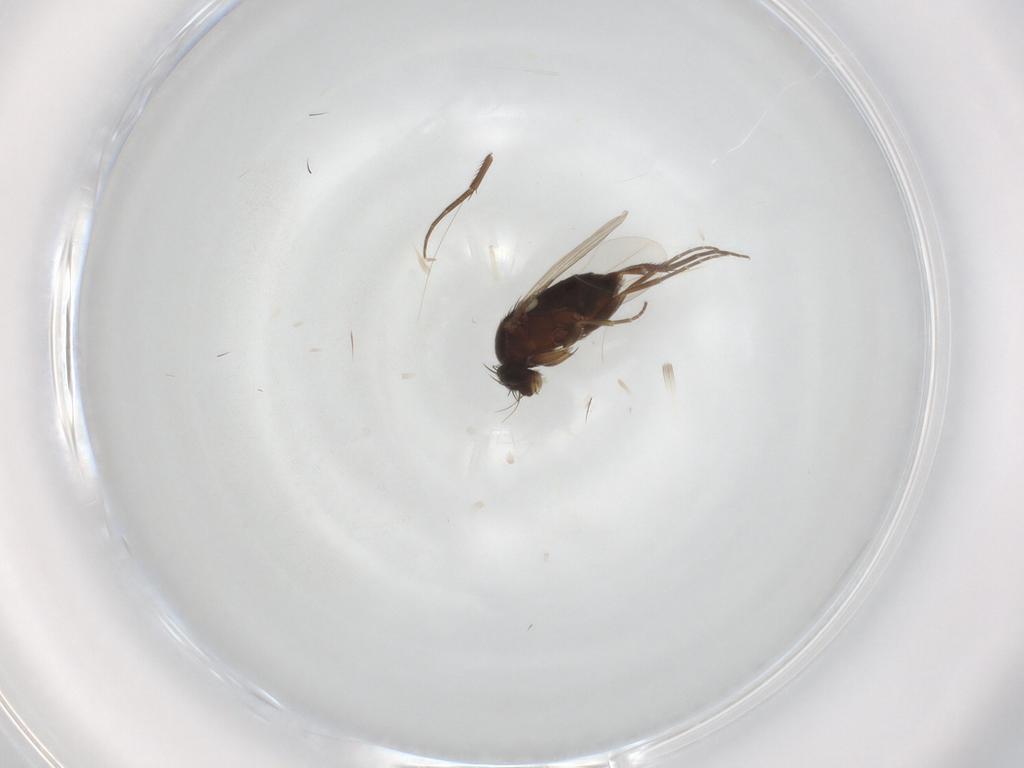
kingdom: Animalia
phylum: Arthropoda
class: Insecta
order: Diptera
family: Phoridae
